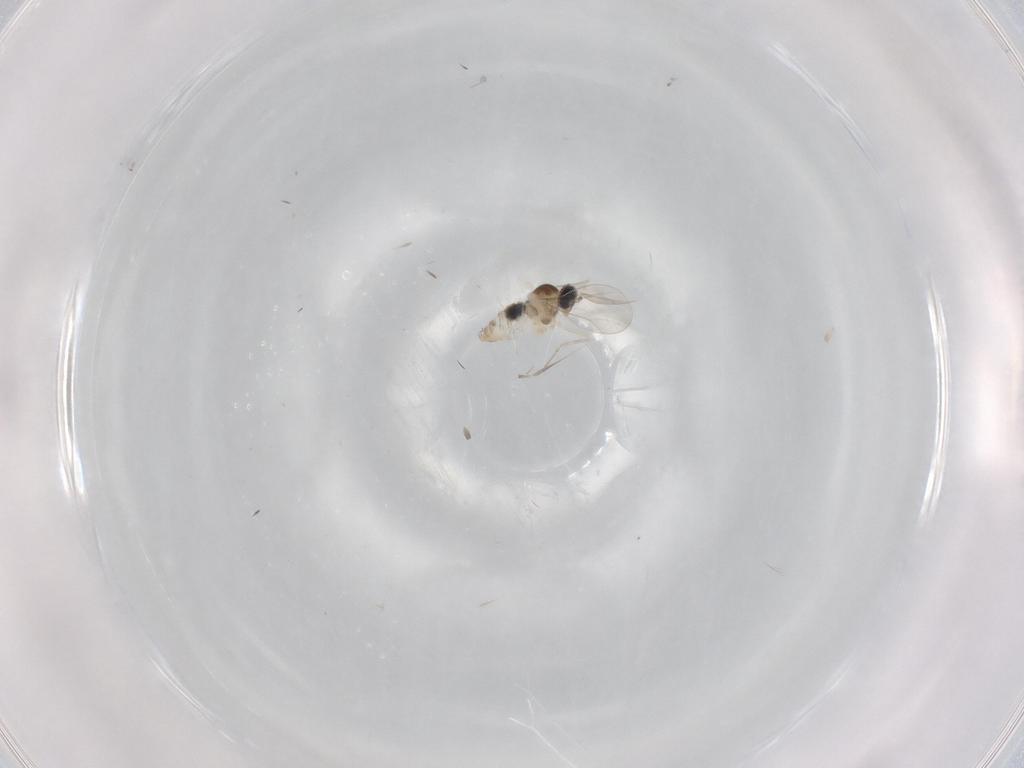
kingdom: Animalia
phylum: Arthropoda
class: Insecta
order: Diptera
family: Cecidomyiidae
